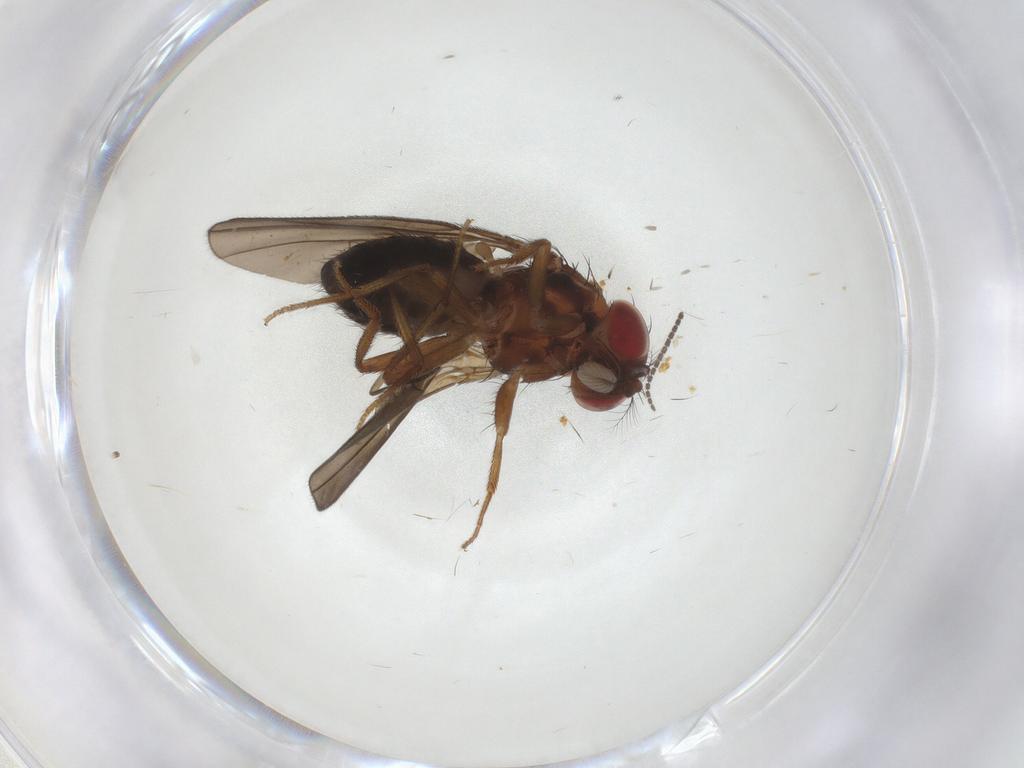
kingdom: Animalia
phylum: Arthropoda
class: Insecta
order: Diptera
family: Drosophilidae
